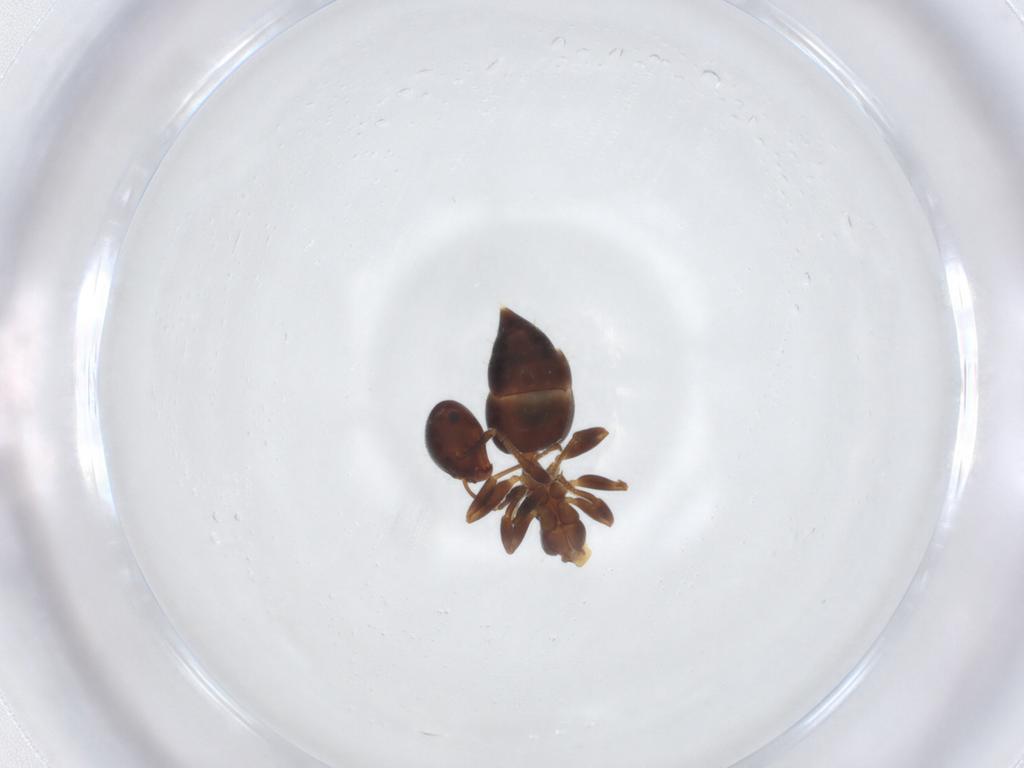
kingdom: Animalia
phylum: Arthropoda
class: Insecta
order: Hymenoptera
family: Formicidae
